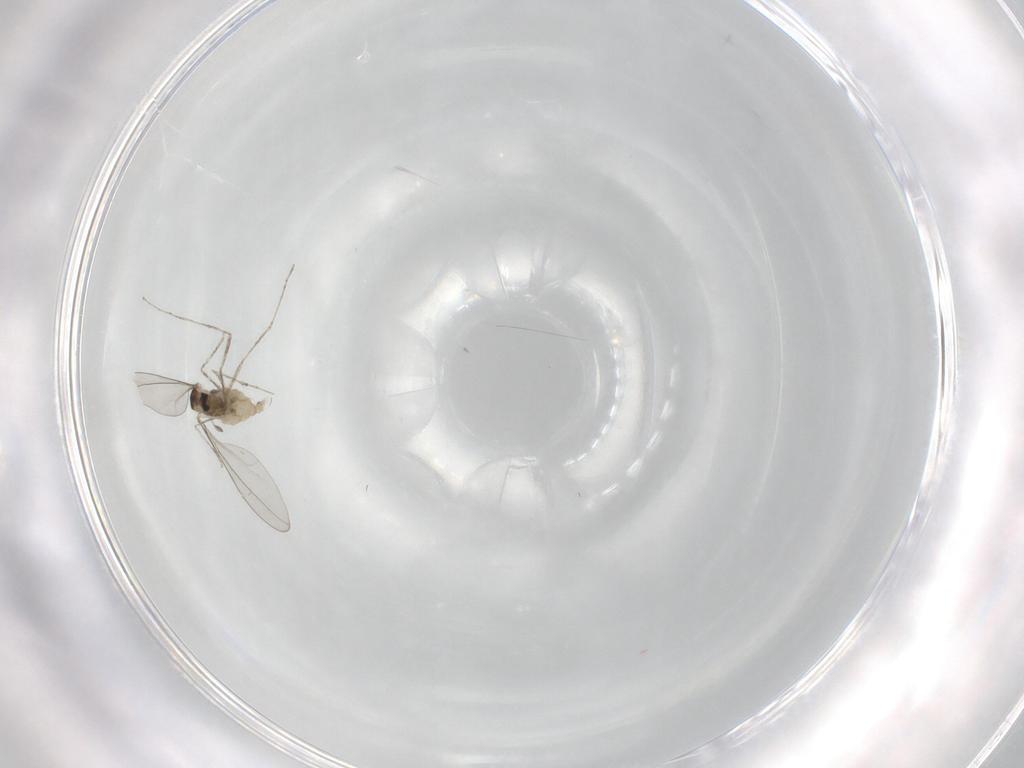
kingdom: Animalia
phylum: Arthropoda
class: Insecta
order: Diptera
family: Cecidomyiidae
